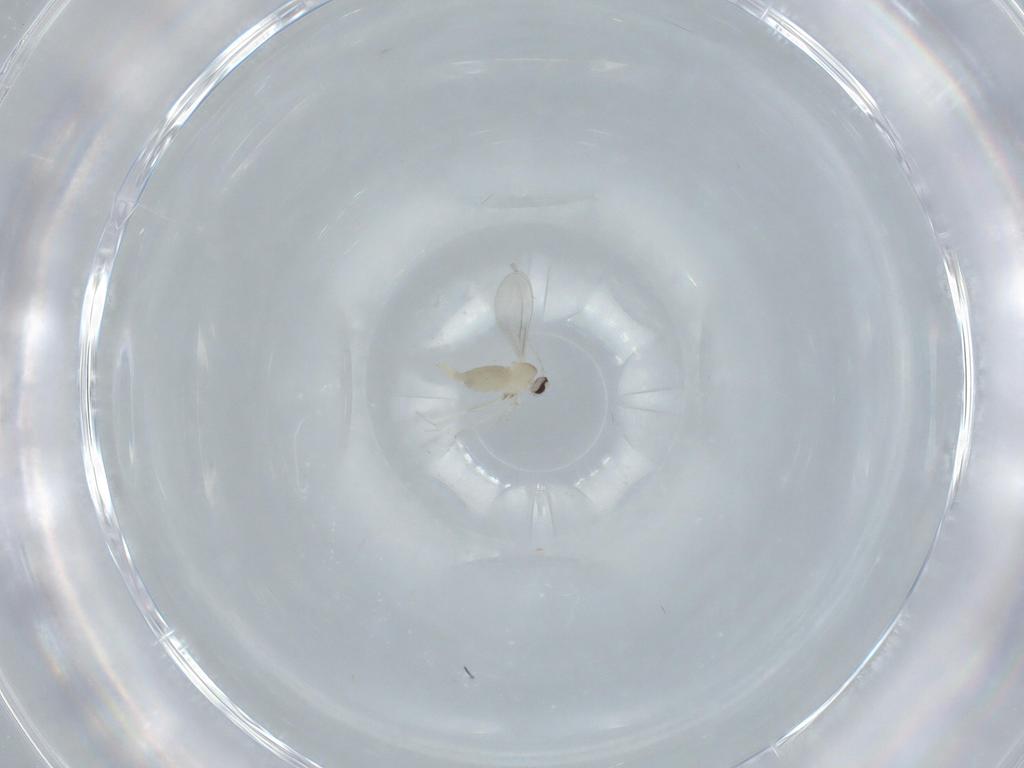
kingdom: Animalia
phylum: Arthropoda
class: Insecta
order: Diptera
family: Cecidomyiidae
